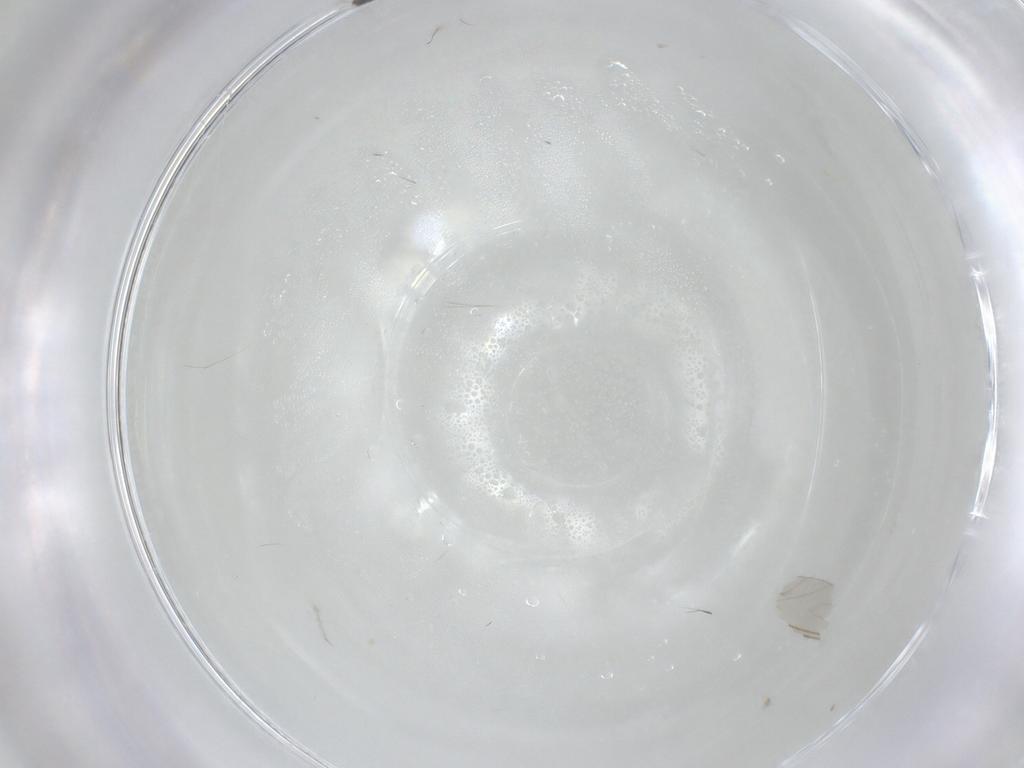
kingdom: Animalia
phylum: Arthropoda
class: Insecta
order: Hymenoptera
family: Mymaridae
